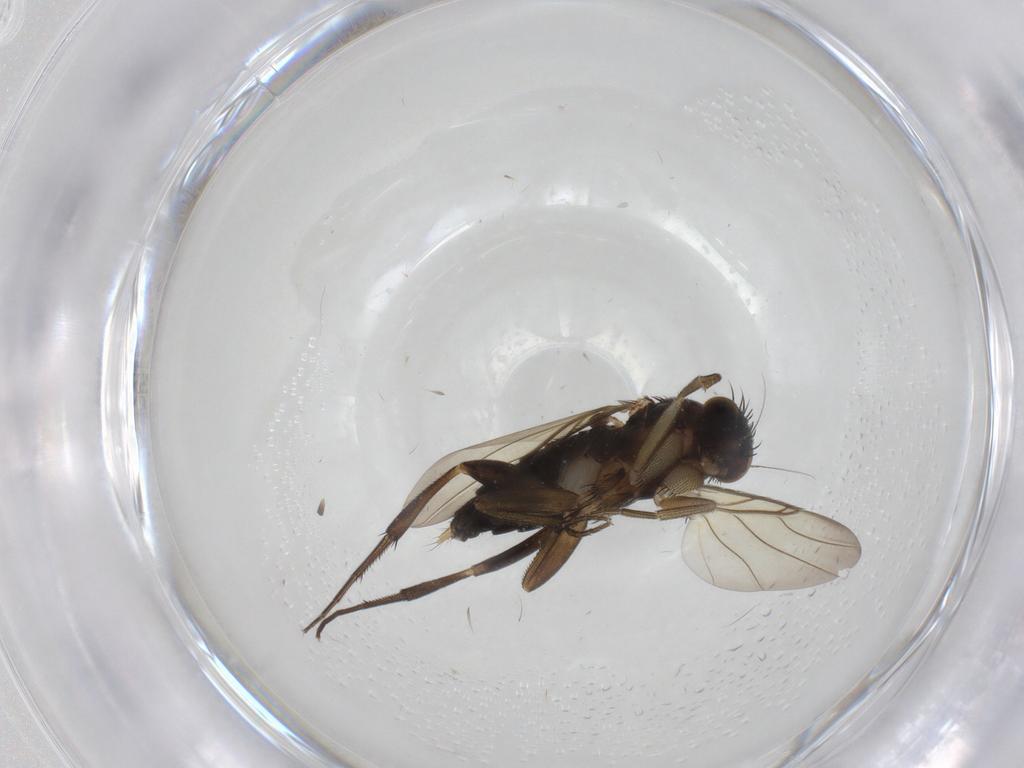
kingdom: Animalia
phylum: Arthropoda
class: Insecta
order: Diptera
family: Phoridae
